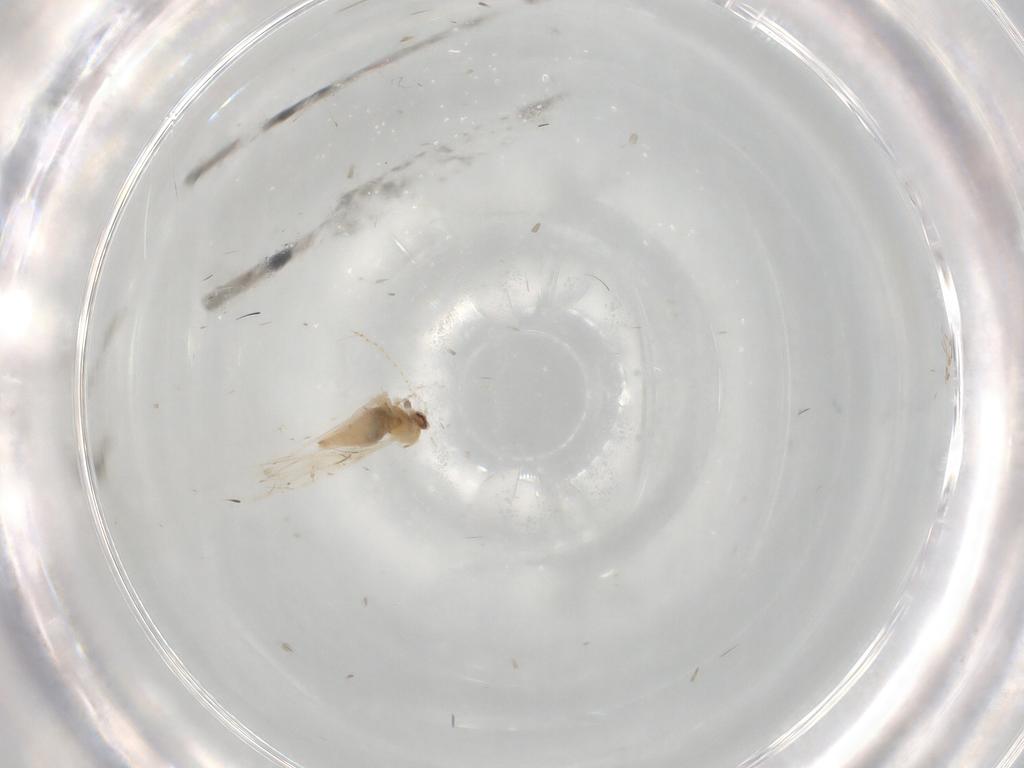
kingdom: Animalia
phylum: Arthropoda
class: Insecta
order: Diptera
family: Cecidomyiidae
